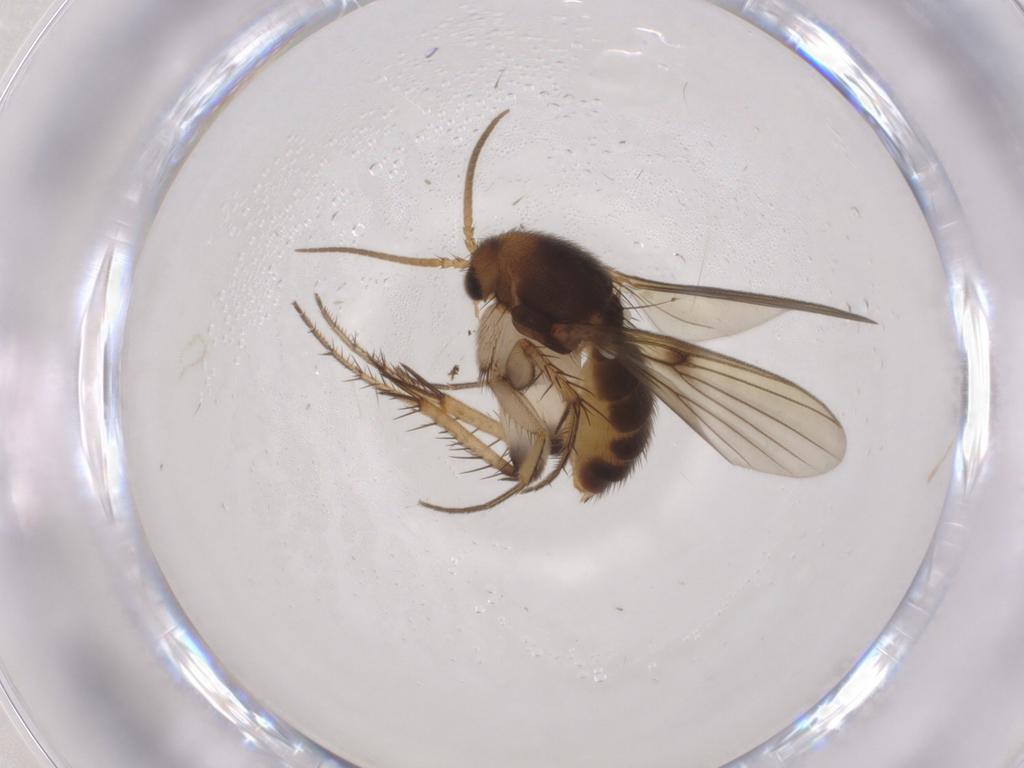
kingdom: Animalia
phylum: Arthropoda
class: Insecta
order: Diptera
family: Mycetophilidae
